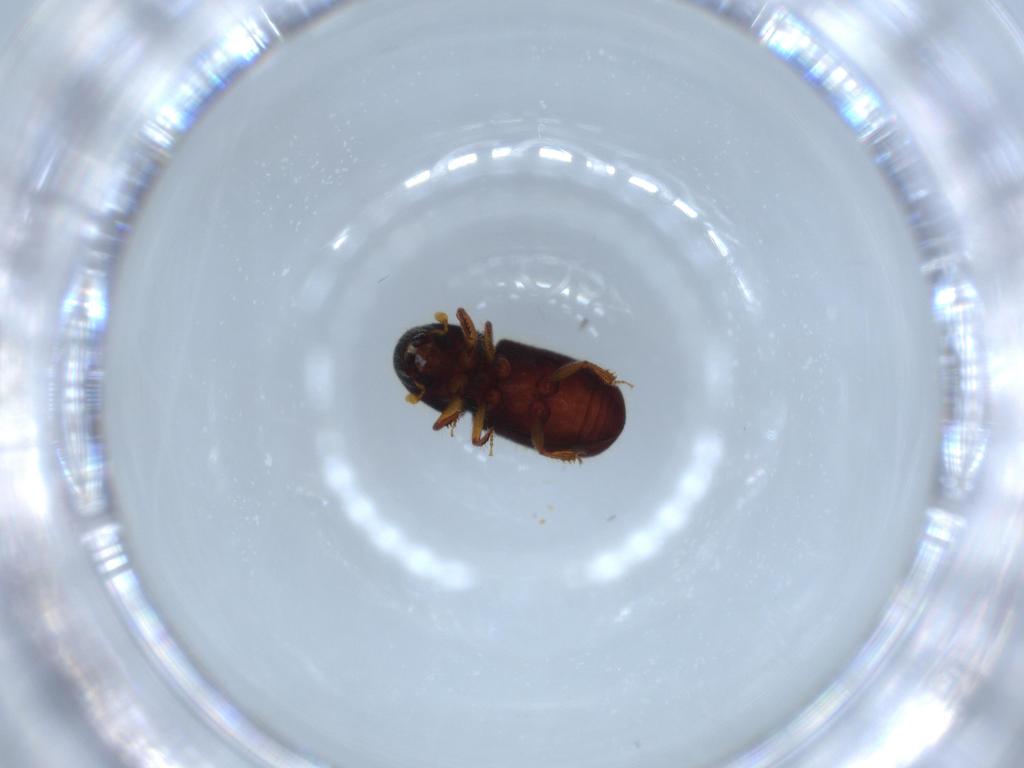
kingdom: Animalia
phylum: Arthropoda
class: Insecta
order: Coleoptera
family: Curculionidae
